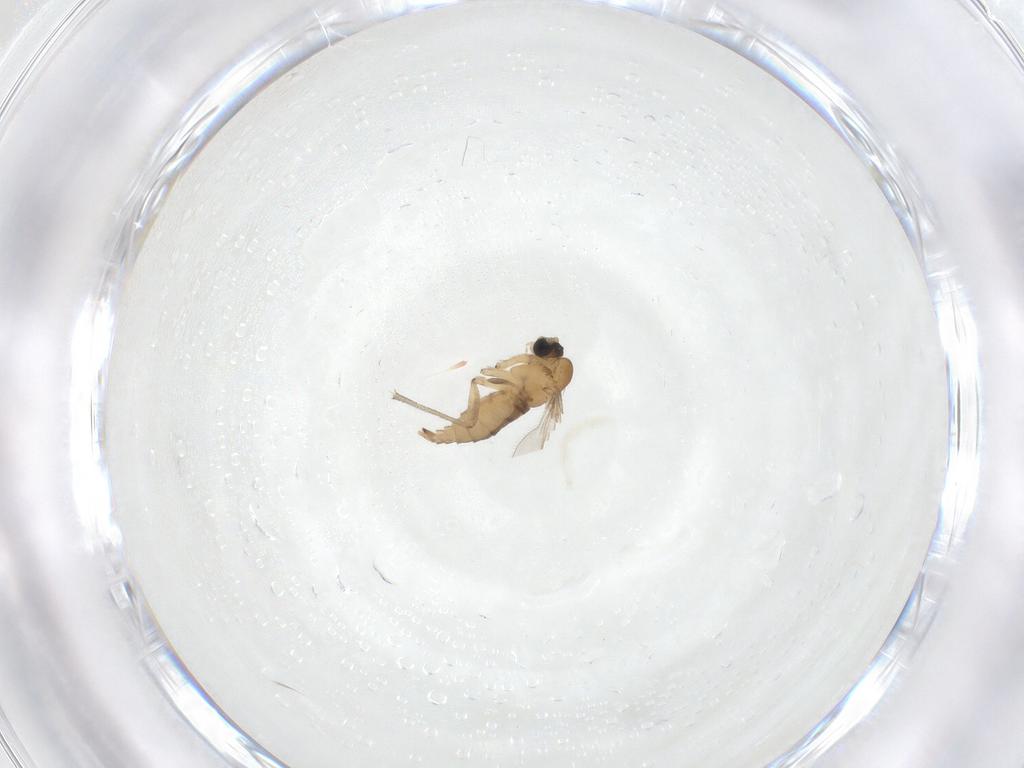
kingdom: Animalia
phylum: Arthropoda
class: Insecta
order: Diptera
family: Sciaridae
